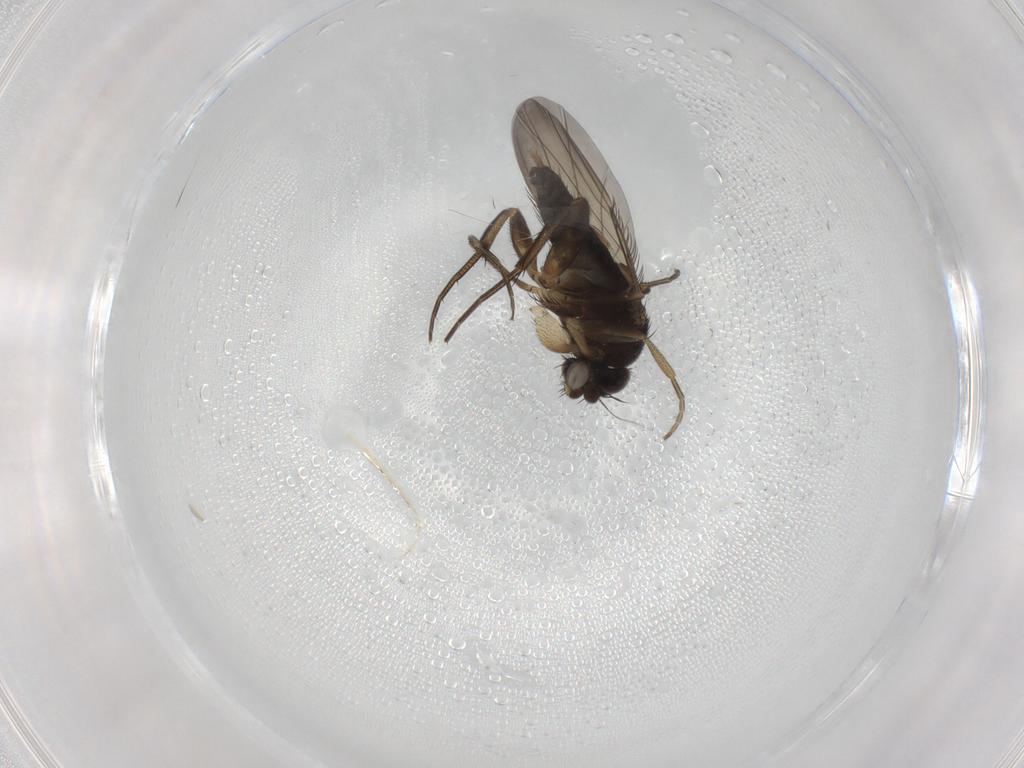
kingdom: Animalia
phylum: Arthropoda
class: Insecta
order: Diptera
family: Phoridae
